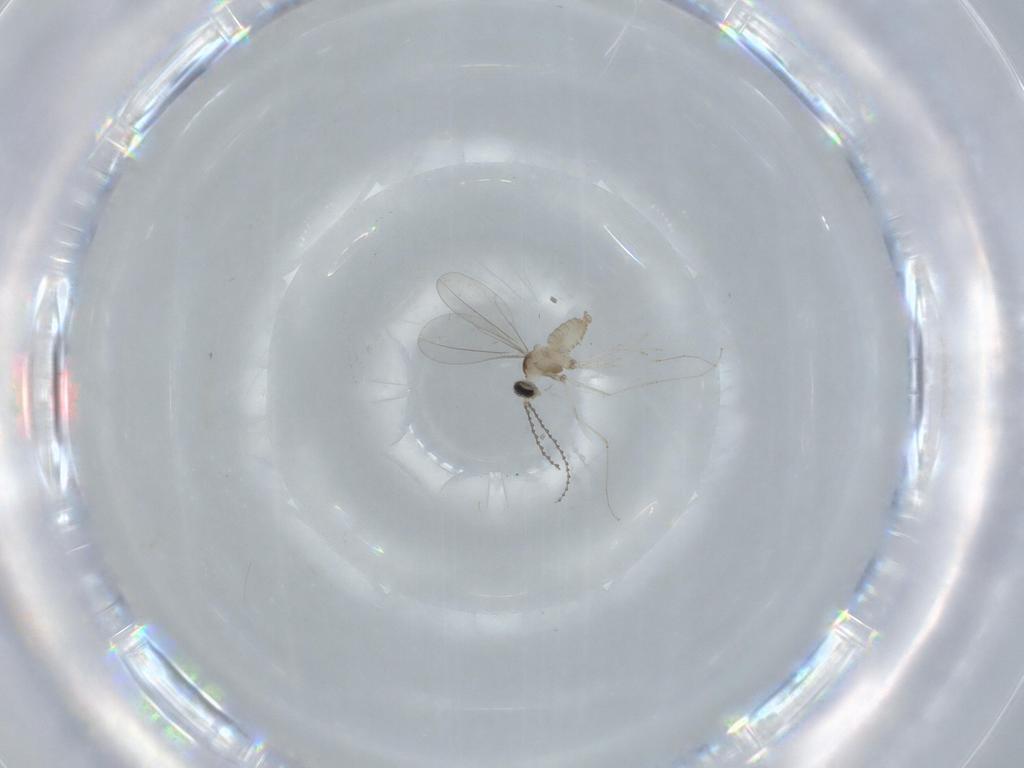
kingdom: Animalia
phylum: Arthropoda
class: Insecta
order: Diptera
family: Cecidomyiidae
